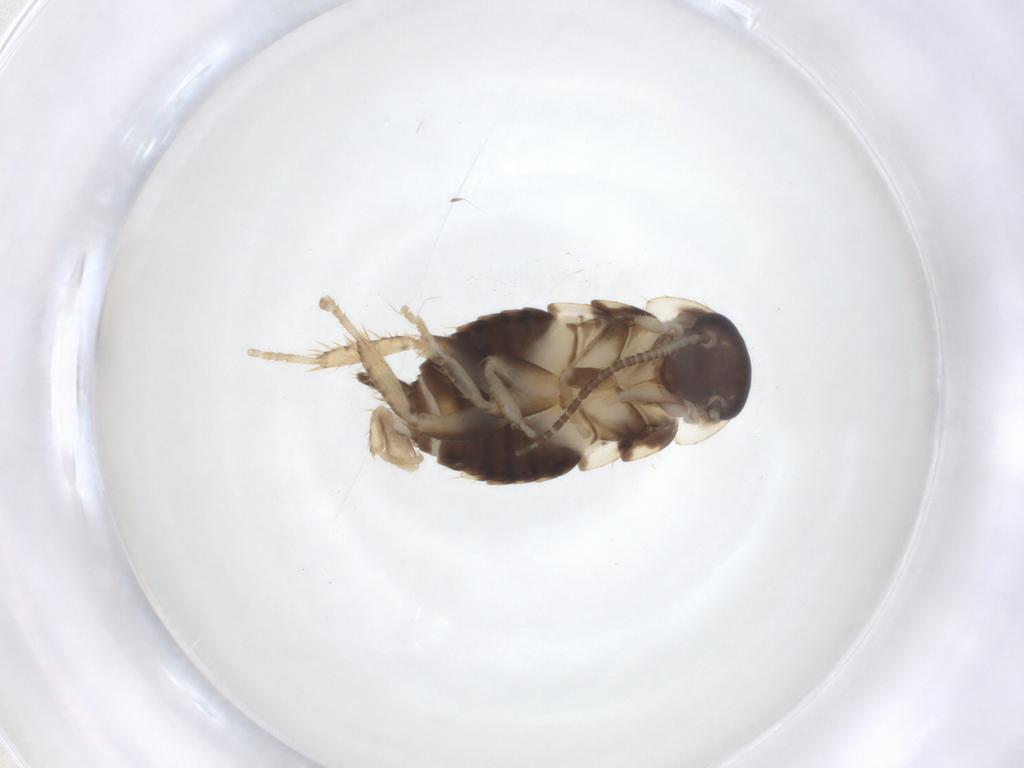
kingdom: Animalia
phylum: Arthropoda
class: Insecta
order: Blattodea
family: Ectobiidae
